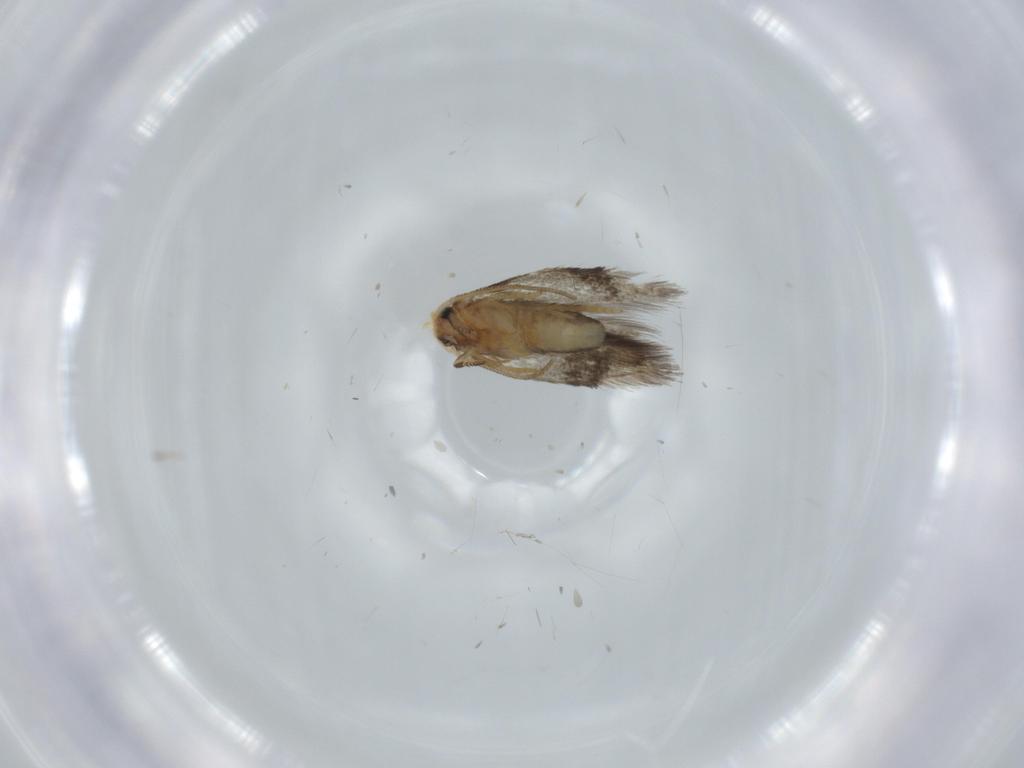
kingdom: Animalia
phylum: Arthropoda
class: Insecta
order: Lepidoptera
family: Nepticulidae
